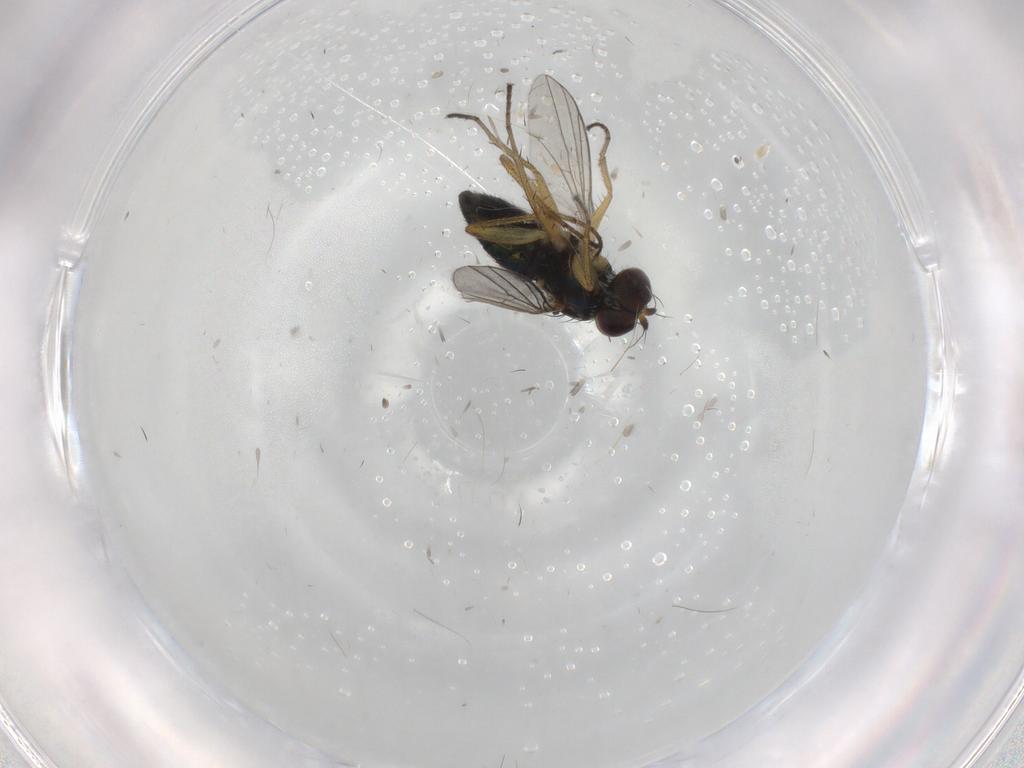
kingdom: Animalia
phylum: Arthropoda
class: Insecta
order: Diptera
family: Dolichopodidae
